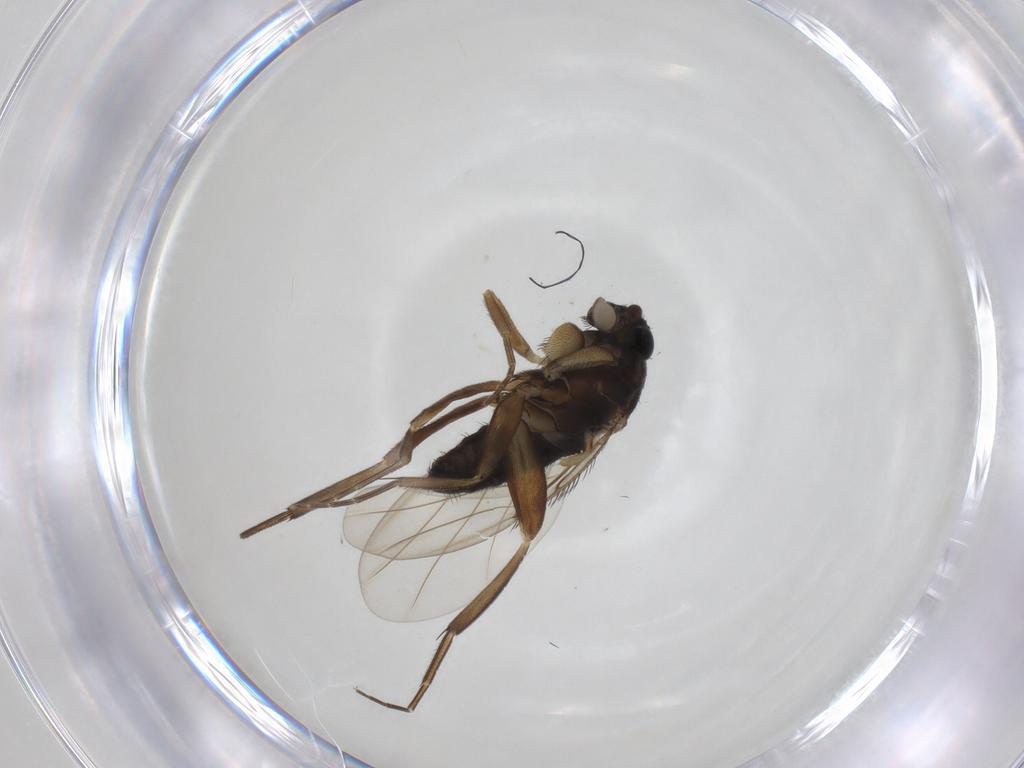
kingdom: Animalia
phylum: Arthropoda
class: Insecta
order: Diptera
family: Phoridae
